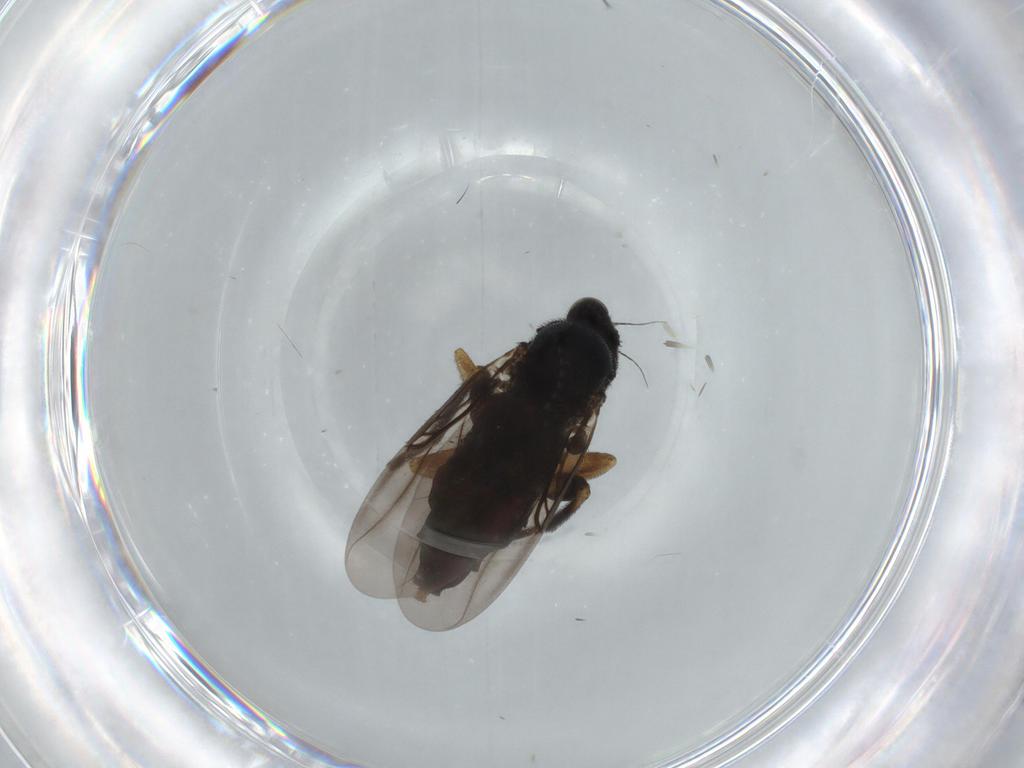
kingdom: Animalia
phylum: Arthropoda
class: Insecta
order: Diptera
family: Phoridae
